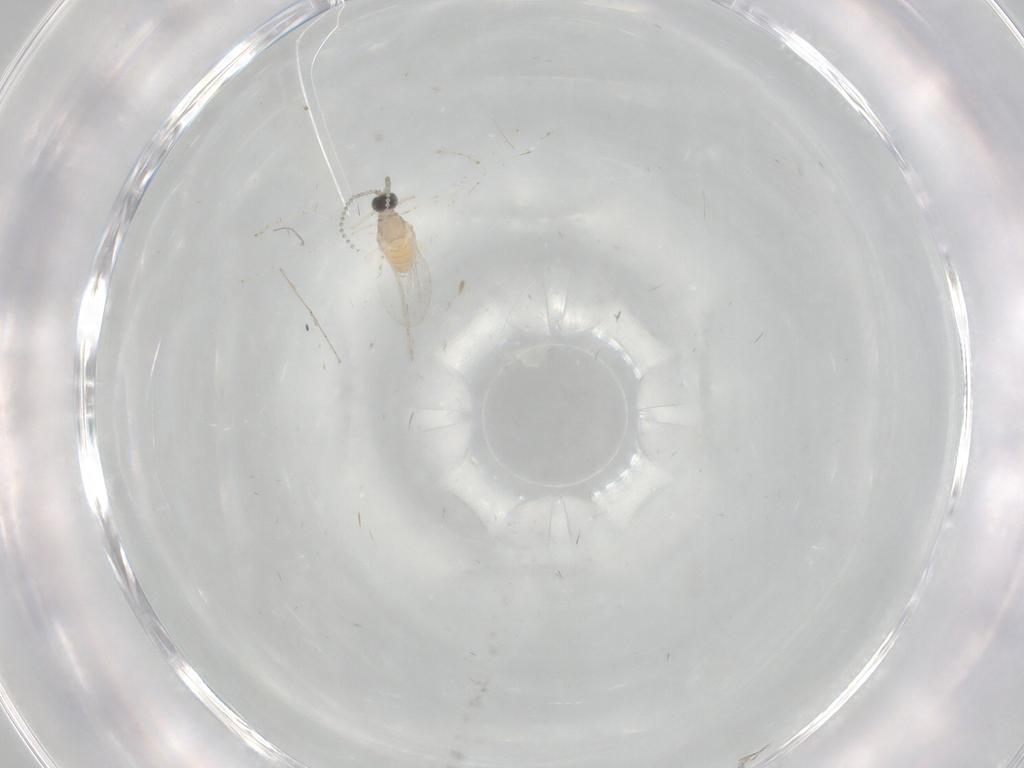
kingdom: Animalia
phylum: Arthropoda
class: Insecta
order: Diptera
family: Cecidomyiidae
